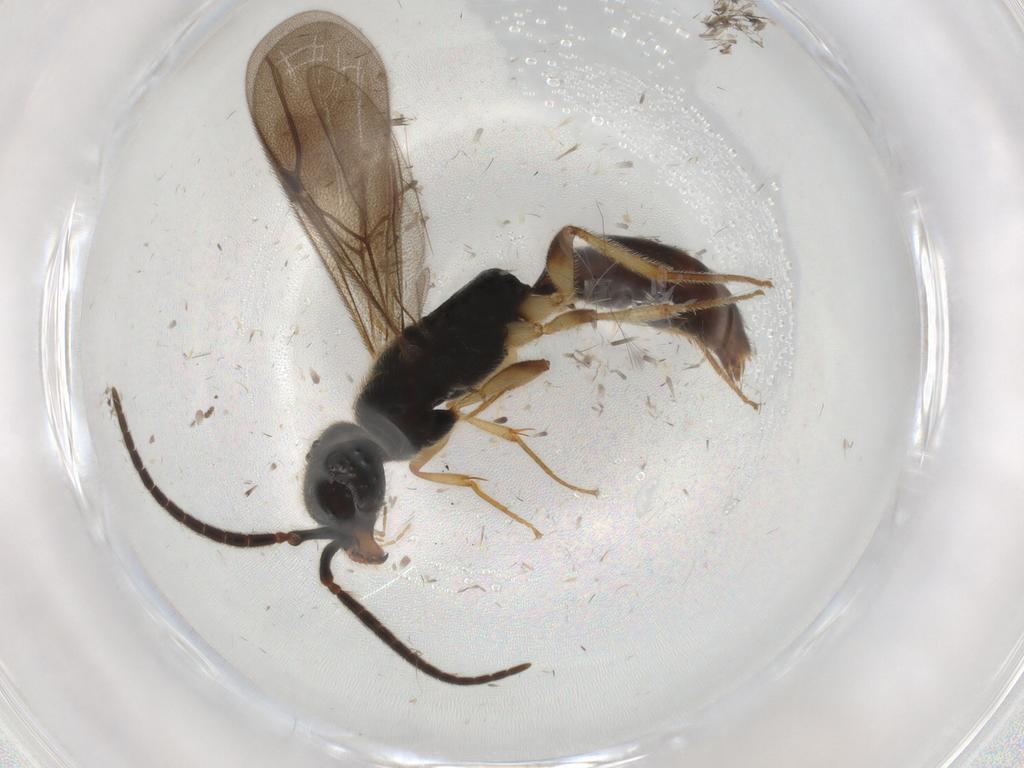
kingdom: Animalia
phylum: Arthropoda
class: Insecta
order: Hymenoptera
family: Bethylidae
